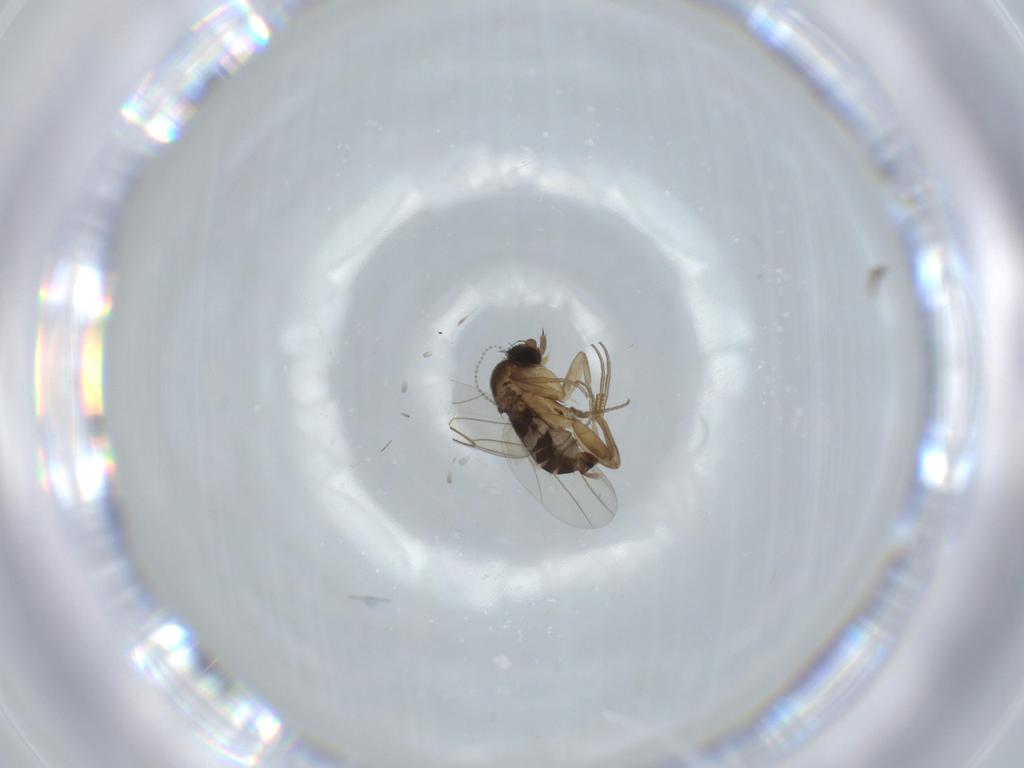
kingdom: Animalia
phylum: Arthropoda
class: Insecta
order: Diptera
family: Phoridae
